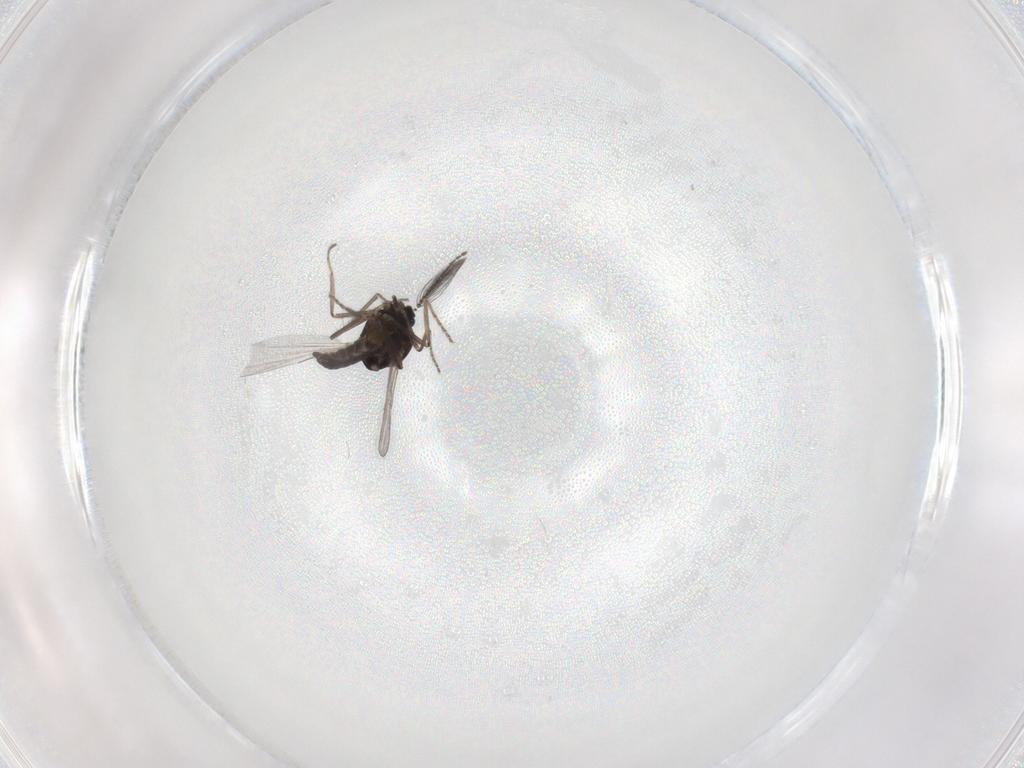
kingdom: Animalia
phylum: Arthropoda
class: Insecta
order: Diptera
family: Ceratopogonidae
